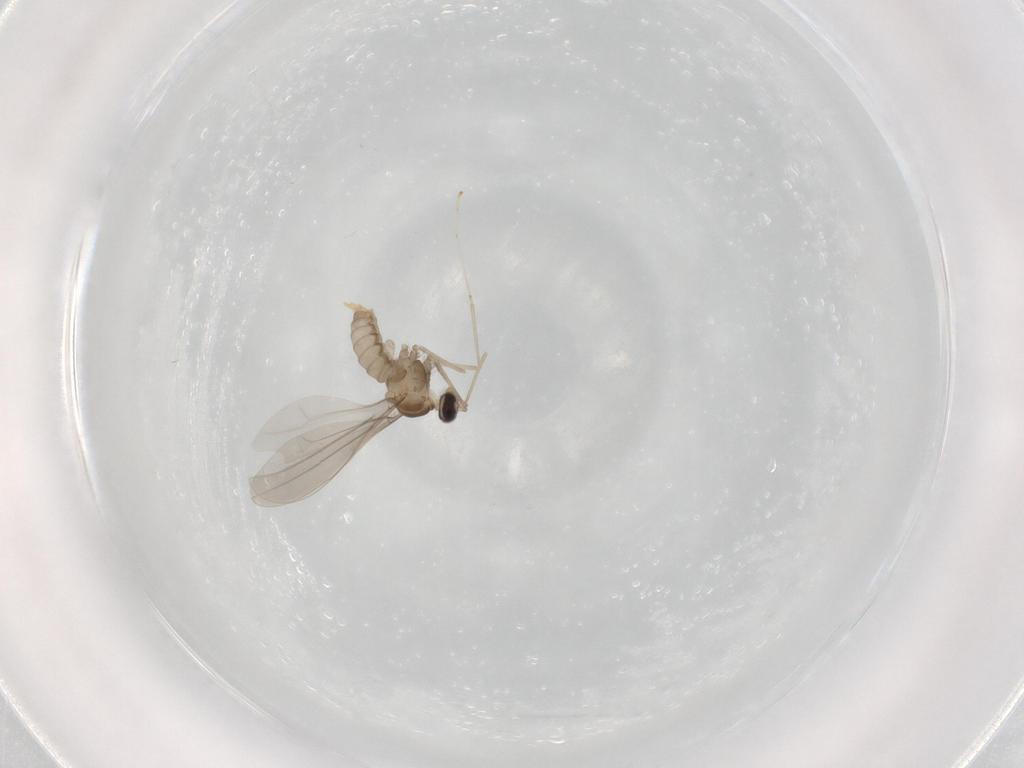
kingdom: Animalia
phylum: Arthropoda
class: Insecta
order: Diptera
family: Cecidomyiidae
